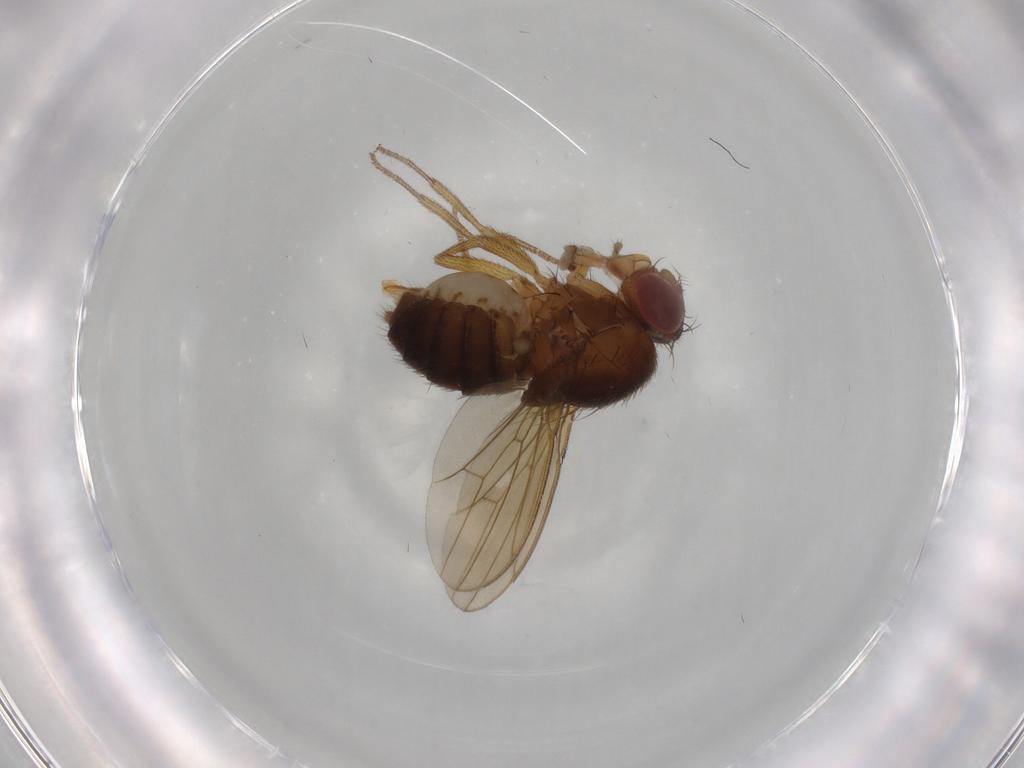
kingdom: Animalia
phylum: Arthropoda
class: Insecta
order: Diptera
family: Drosophilidae
